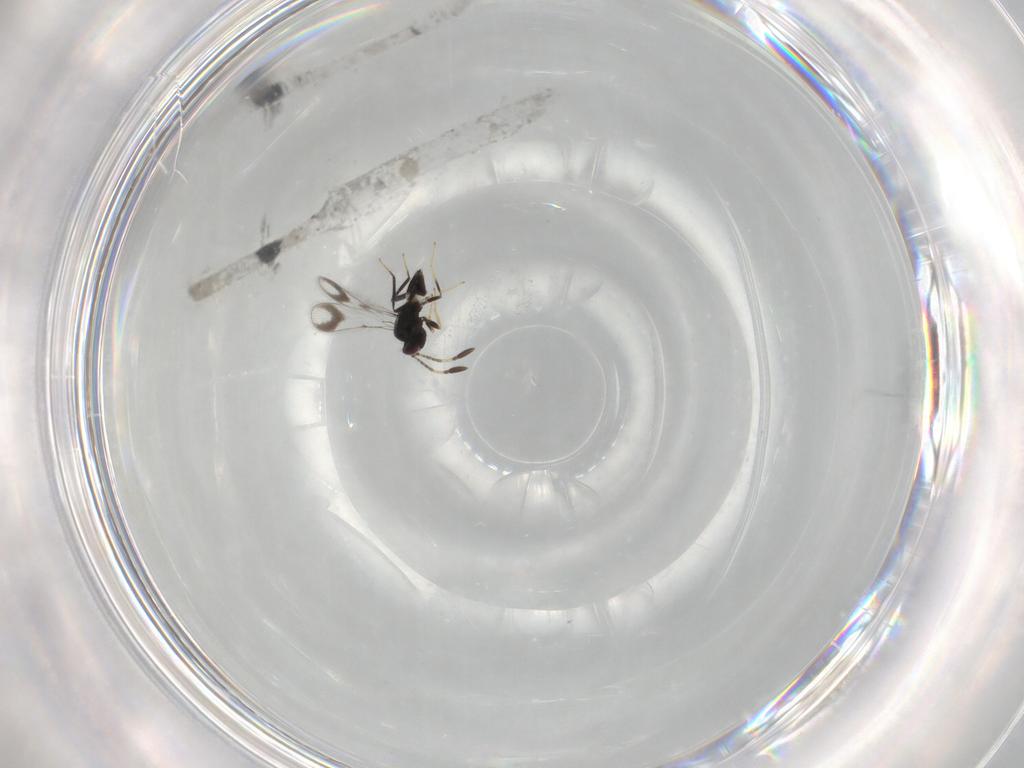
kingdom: Animalia
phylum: Arthropoda
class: Insecta
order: Hymenoptera
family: Mymaridae
